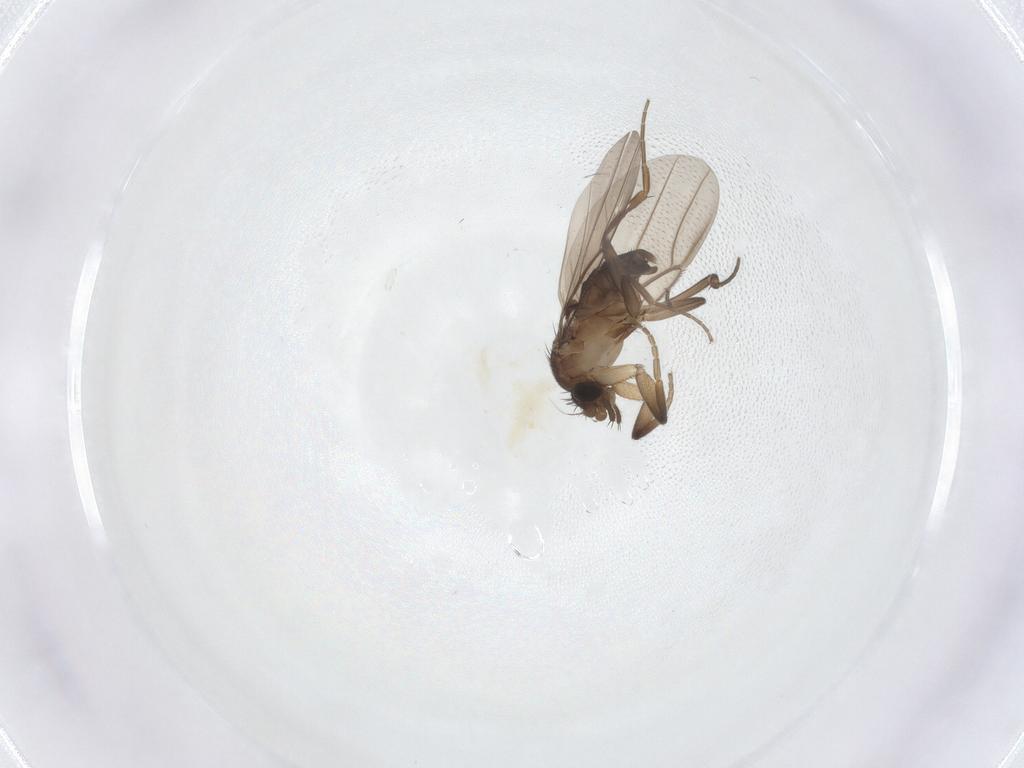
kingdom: Animalia
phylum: Arthropoda
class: Insecta
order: Diptera
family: Phoridae
